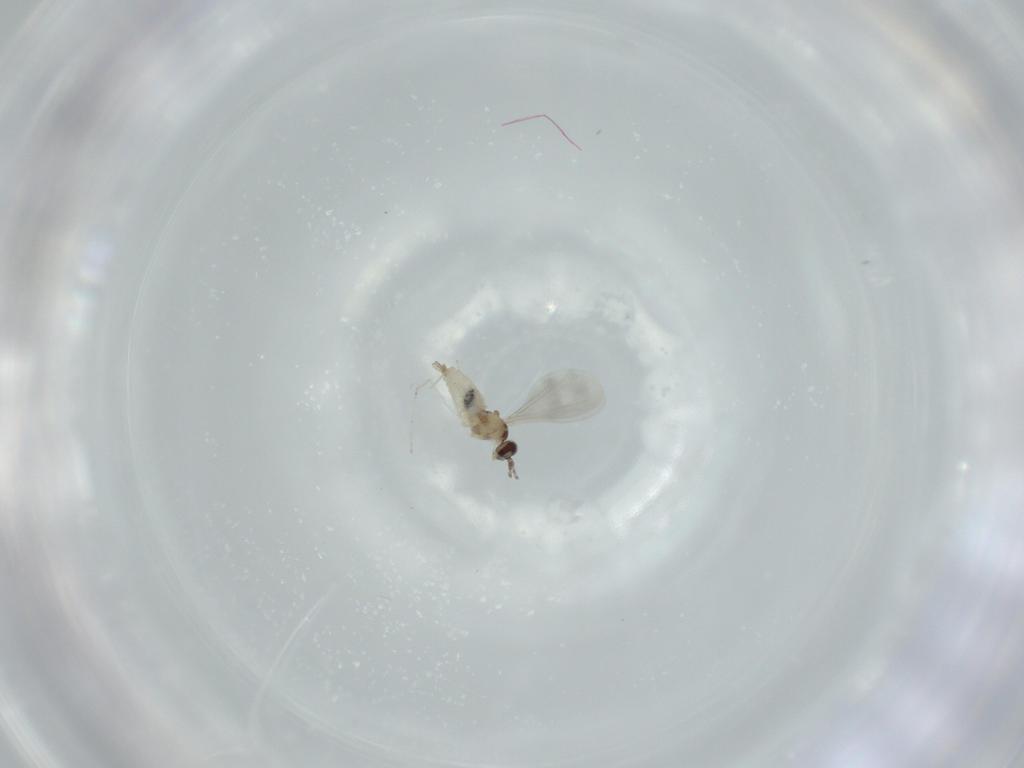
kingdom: Animalia
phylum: Arthropoda
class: Insecta
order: Diptera
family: Cecidomyiidae
